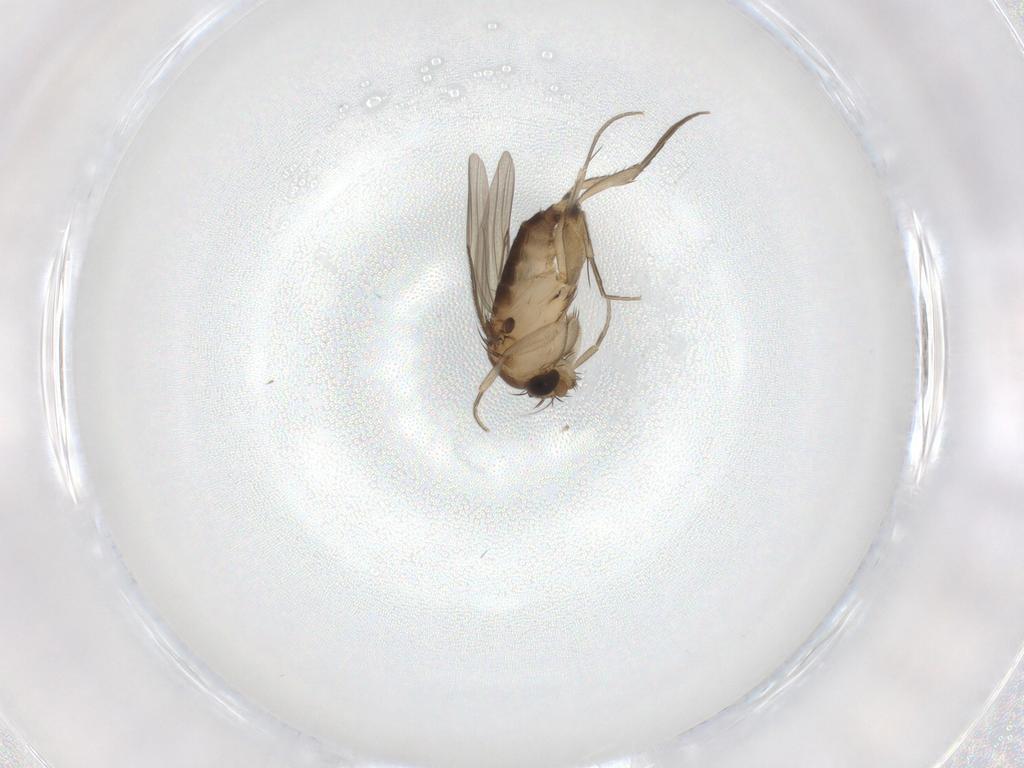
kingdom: Animalia
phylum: Arthropoda
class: Insecta
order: Diptera
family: Phoridae
